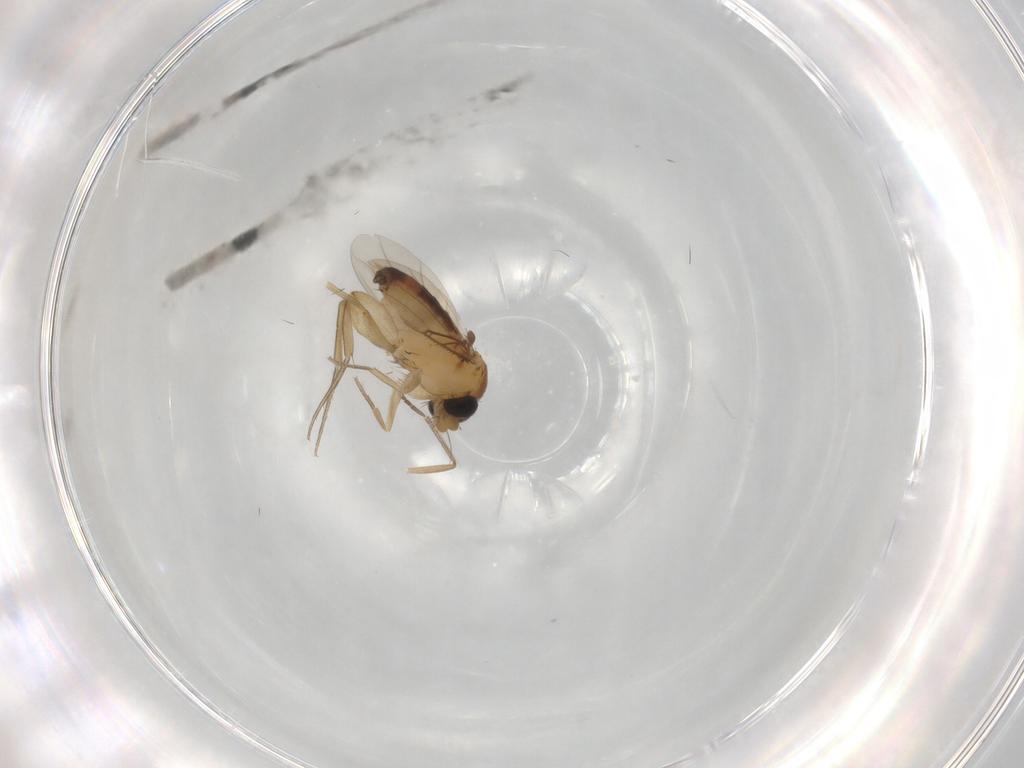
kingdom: Animalia
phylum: Arthropoda
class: Insecta
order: Diptera
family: Phoridae
